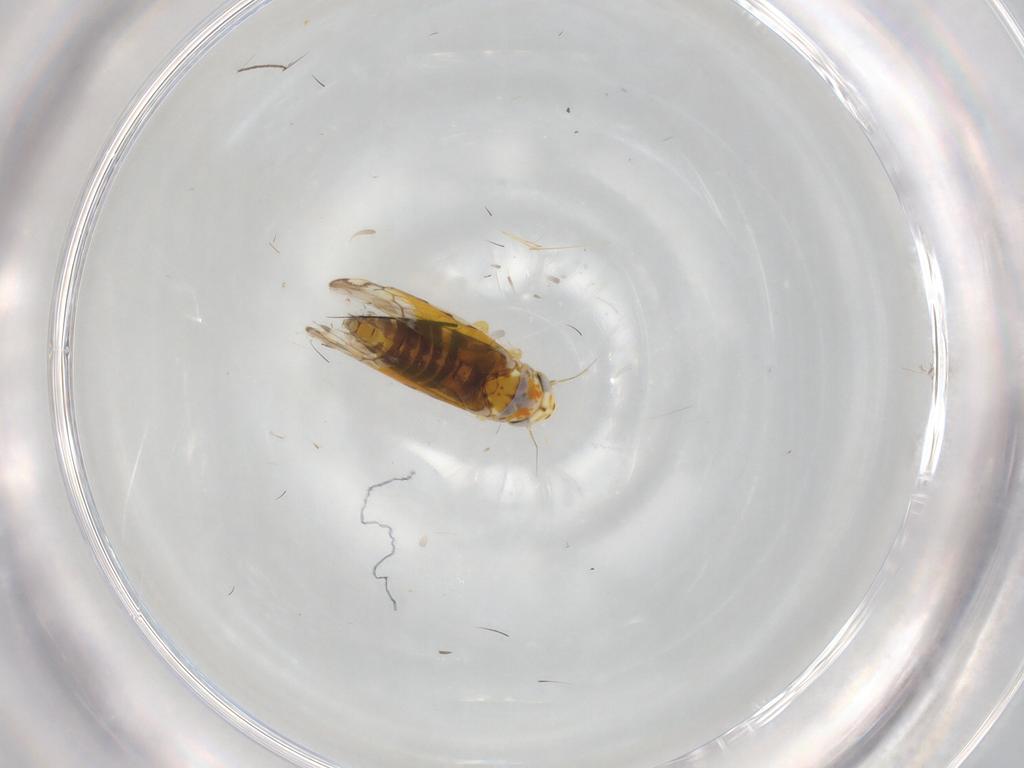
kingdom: Animalia
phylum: Arthropoda
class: Insecta
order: Hemiptera
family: Cicadellidae
